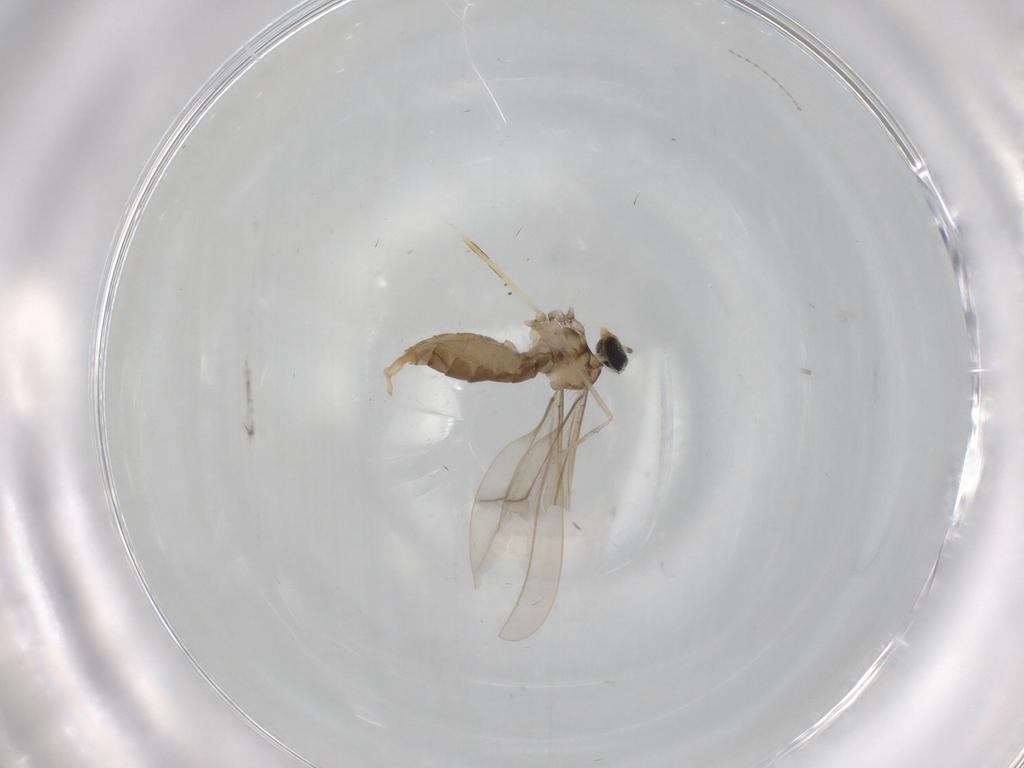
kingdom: Animalia
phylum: Arthropoda
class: Insecta
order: Diptera
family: Cecidomyiidae
